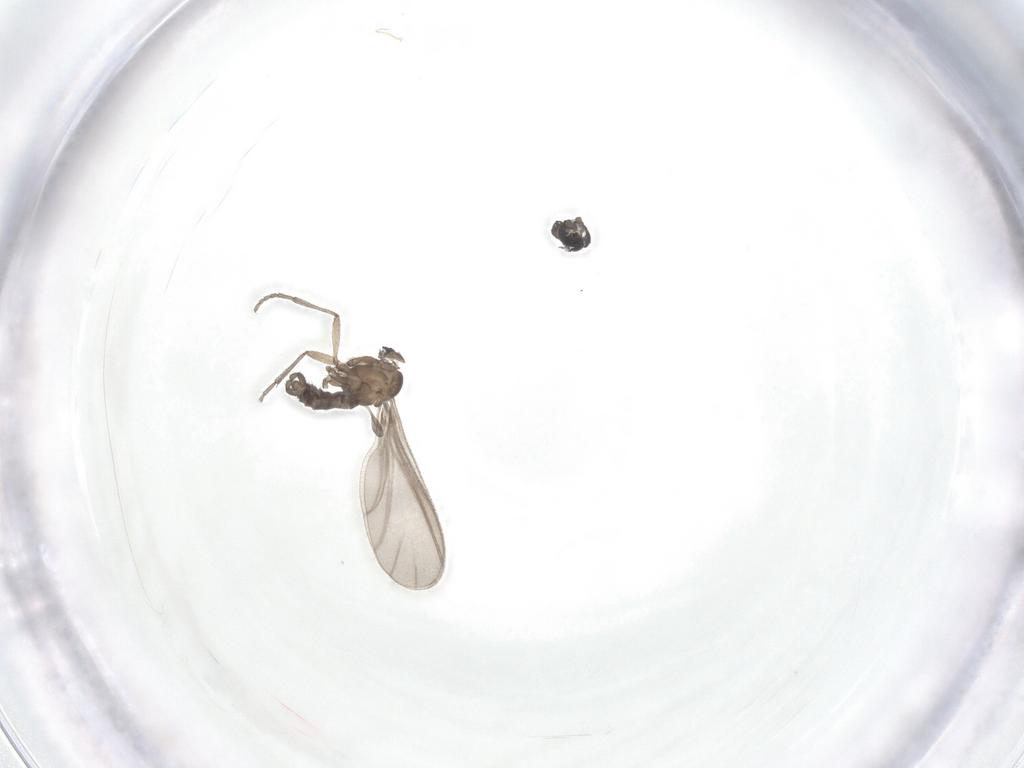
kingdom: Animalia
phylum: Arthropoda
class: Insecta
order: Diptera
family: Sciaridae
